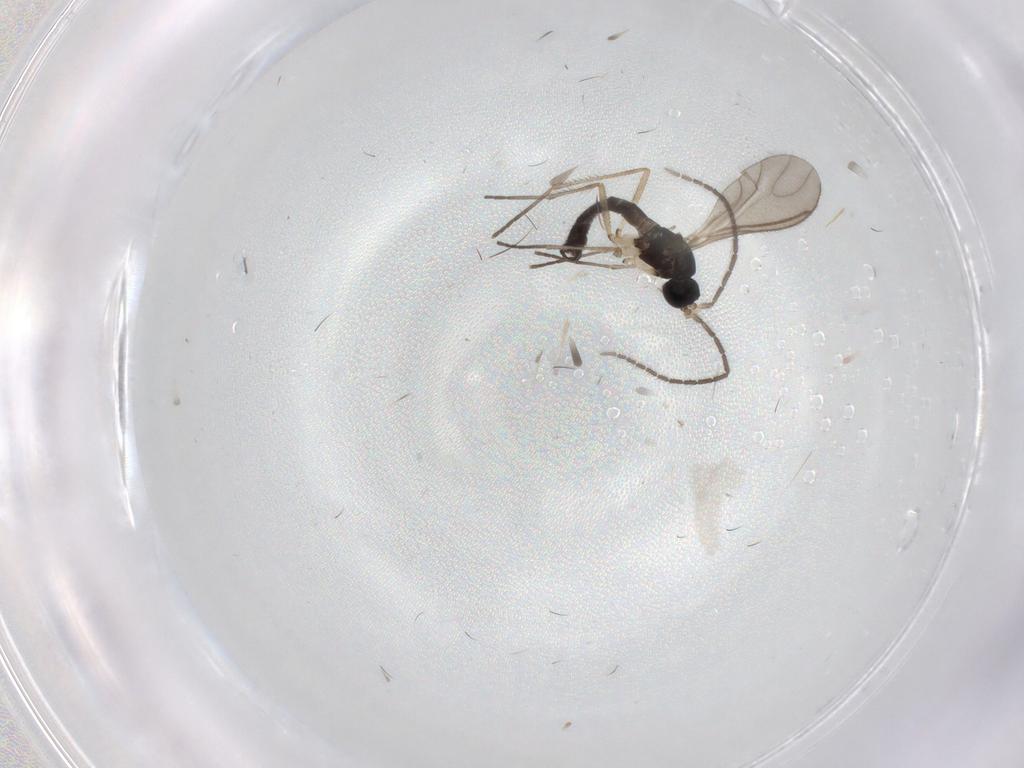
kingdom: Animalia
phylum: Arthropoda
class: Insecta
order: Diptera
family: Sciaridae
